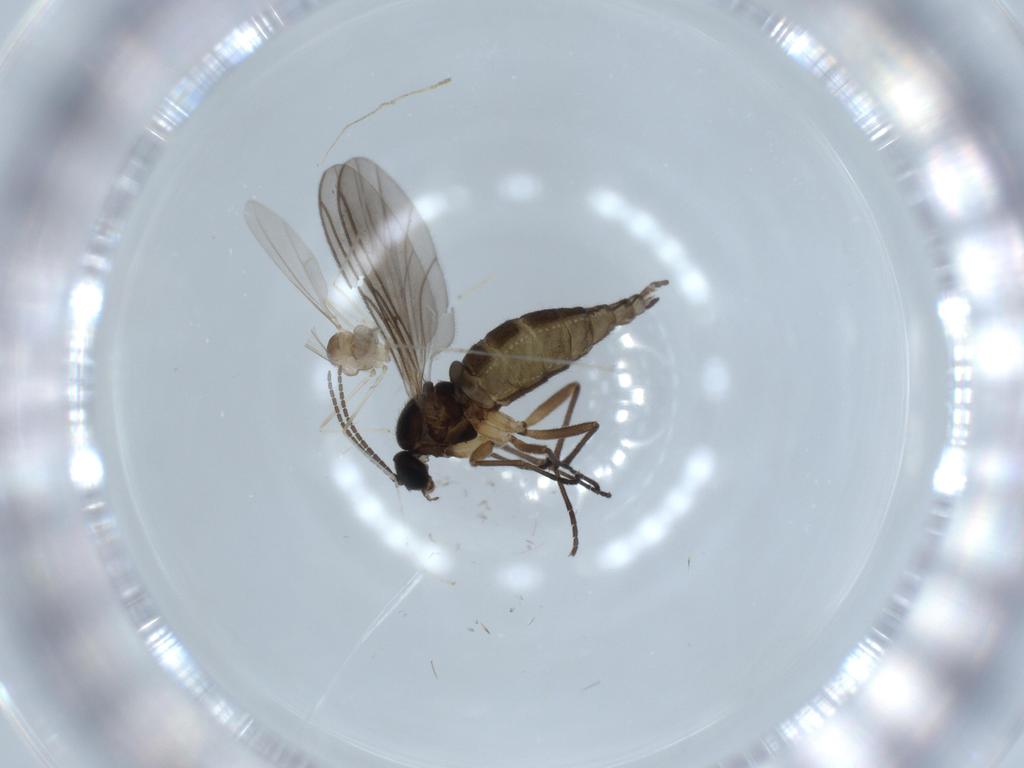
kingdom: Animalia
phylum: Arthropoda
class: Insecta
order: Diptera
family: Sciaridae
